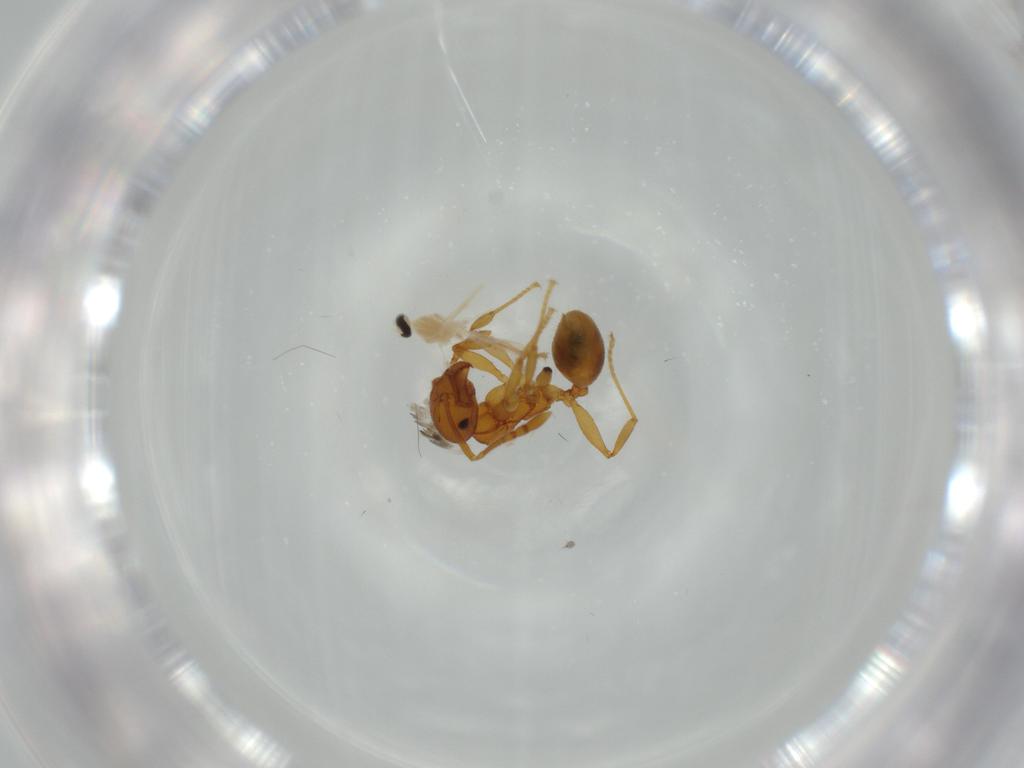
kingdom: Animalia
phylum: Arthropoda
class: Insecta
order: Hymenoptera
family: Formicidae
